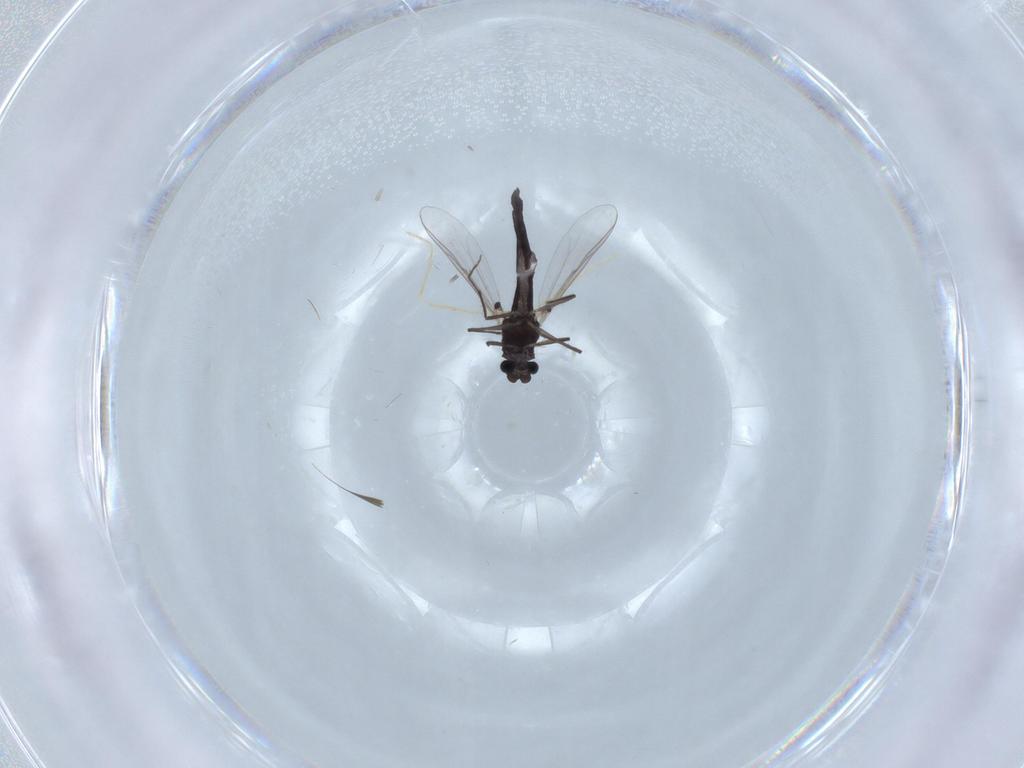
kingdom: Animalia
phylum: Arthropoda
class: Insecta
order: Diptera
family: Chironomidae
